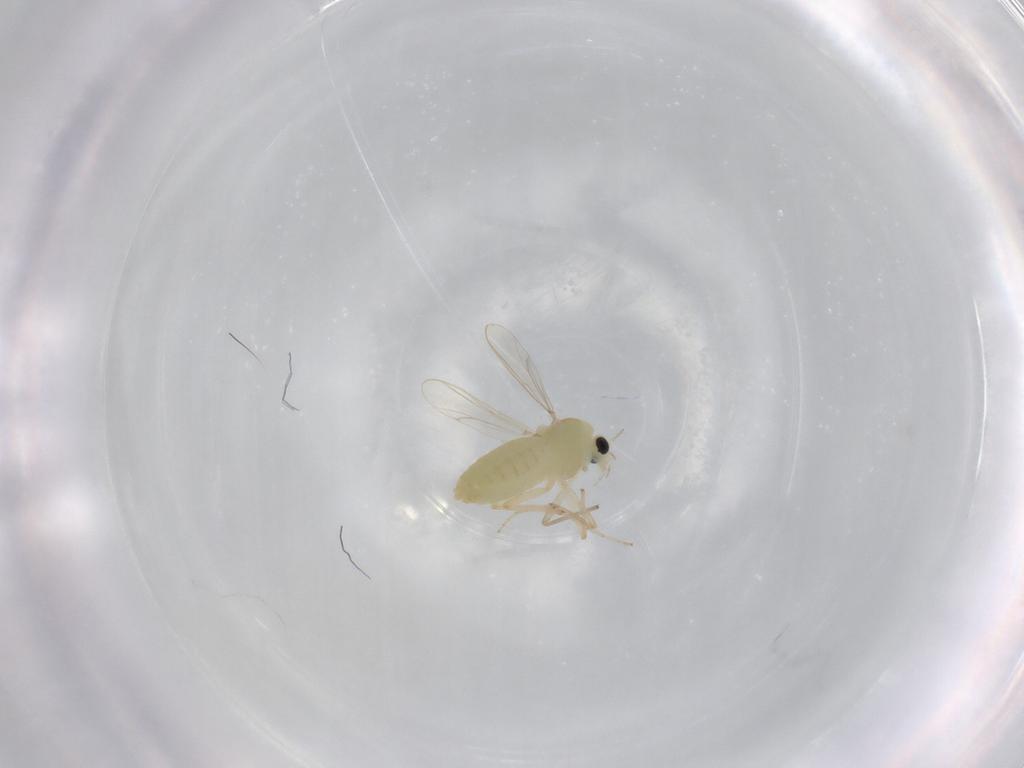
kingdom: Animalia
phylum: Arthropoda
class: Insecta
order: Diptera
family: Chironomidae
